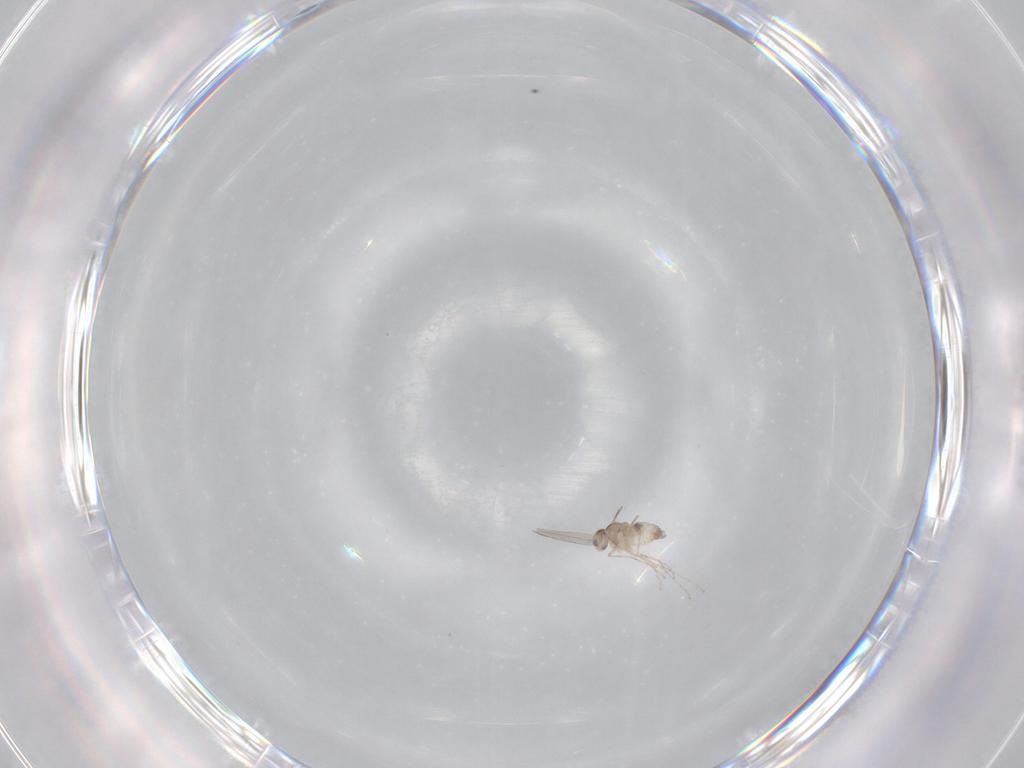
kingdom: Animalia
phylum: Arthropoda
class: Insecta
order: Diptera
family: Cecidomyiidae
